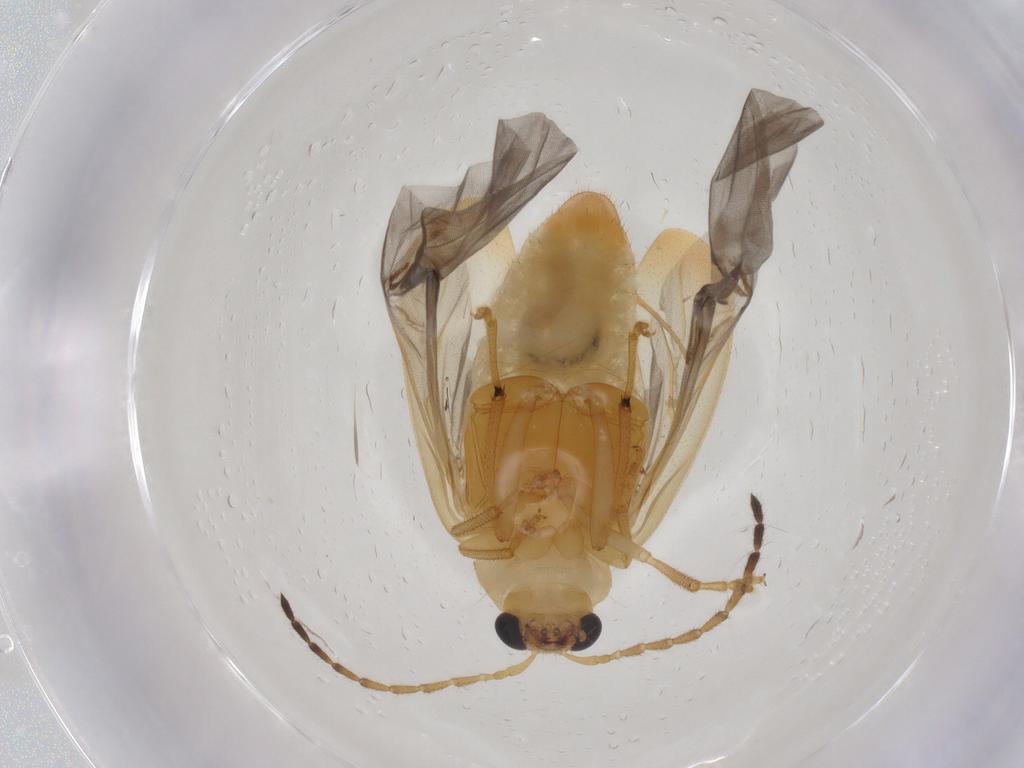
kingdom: Animalia
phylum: Arthropoda
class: Insecta
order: Coleoptera
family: Chrysomelidae
